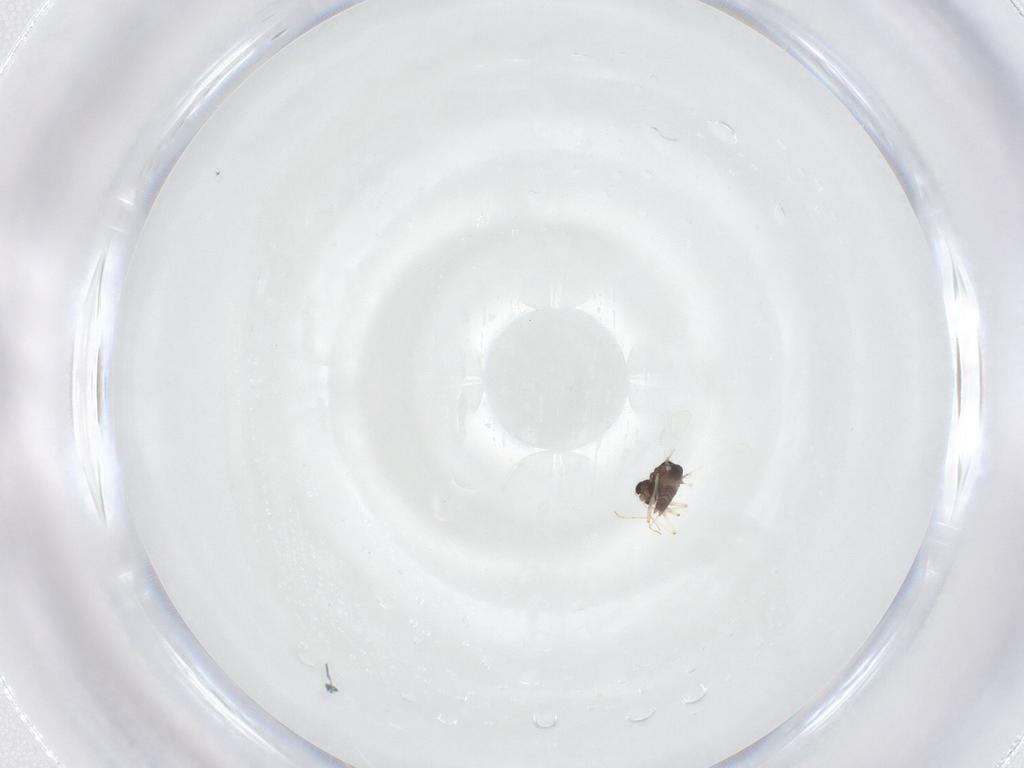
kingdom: Animalia
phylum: Arthropoda
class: Insecta
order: Diptera
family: Chironomidae
